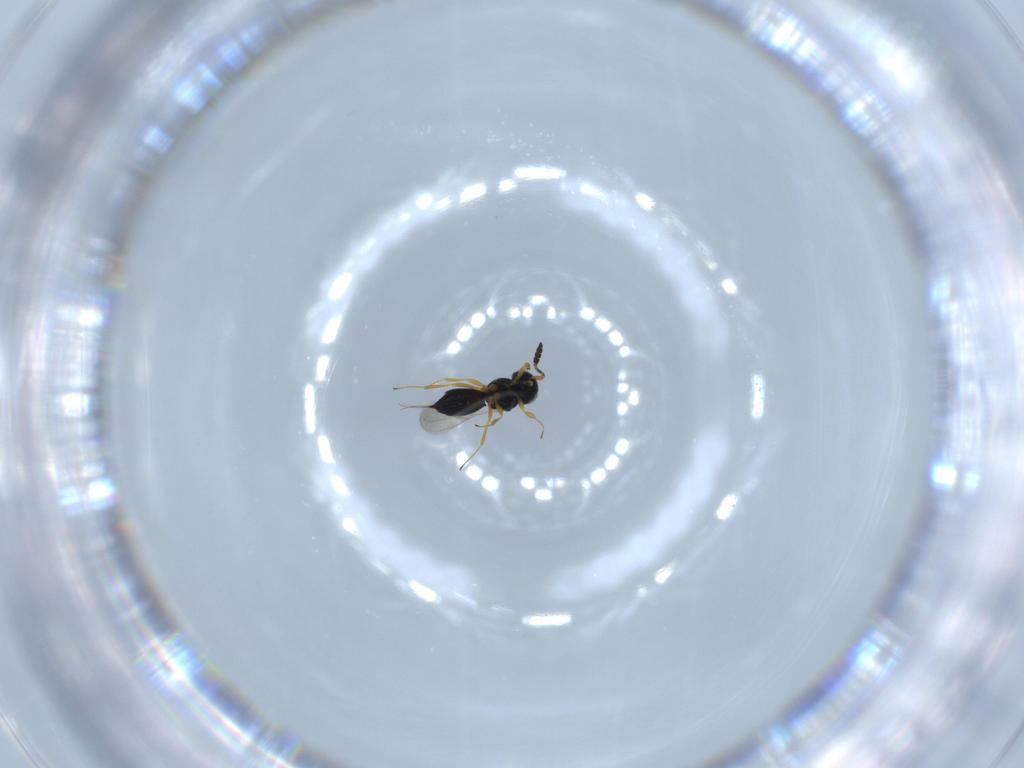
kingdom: Animalia
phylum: Arthropoda
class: Insecta
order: Hymenoptera
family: Scelionidae
